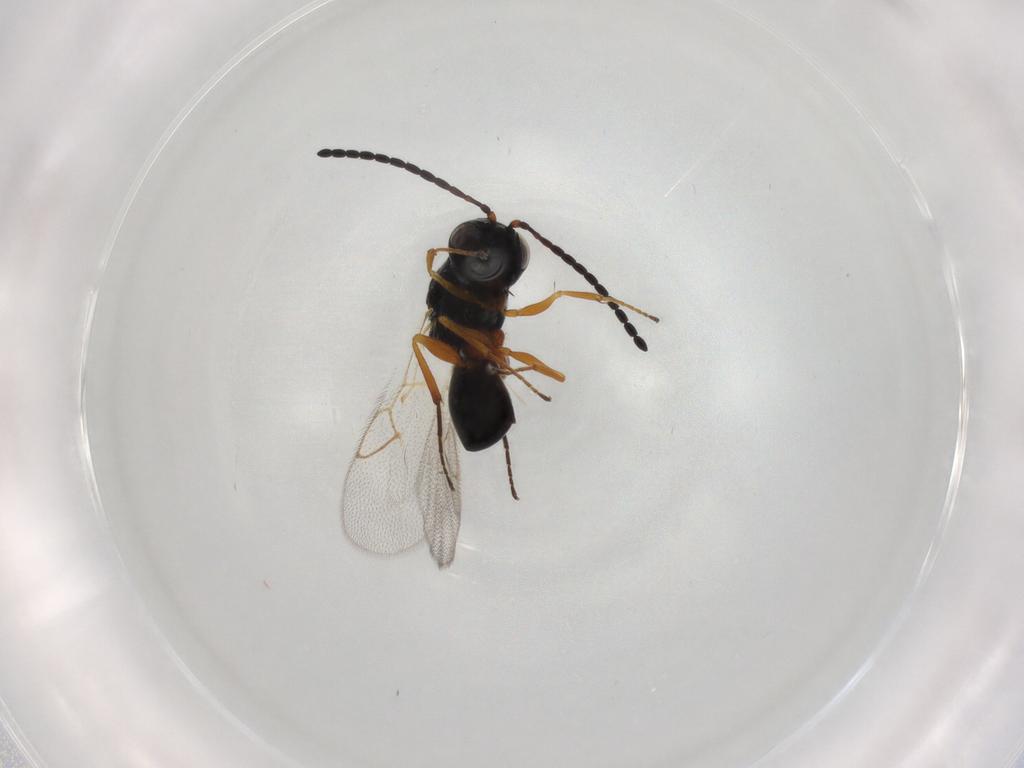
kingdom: Animalia
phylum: Arthropoda
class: Insecta
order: Hymenoptera
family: Figitidae
